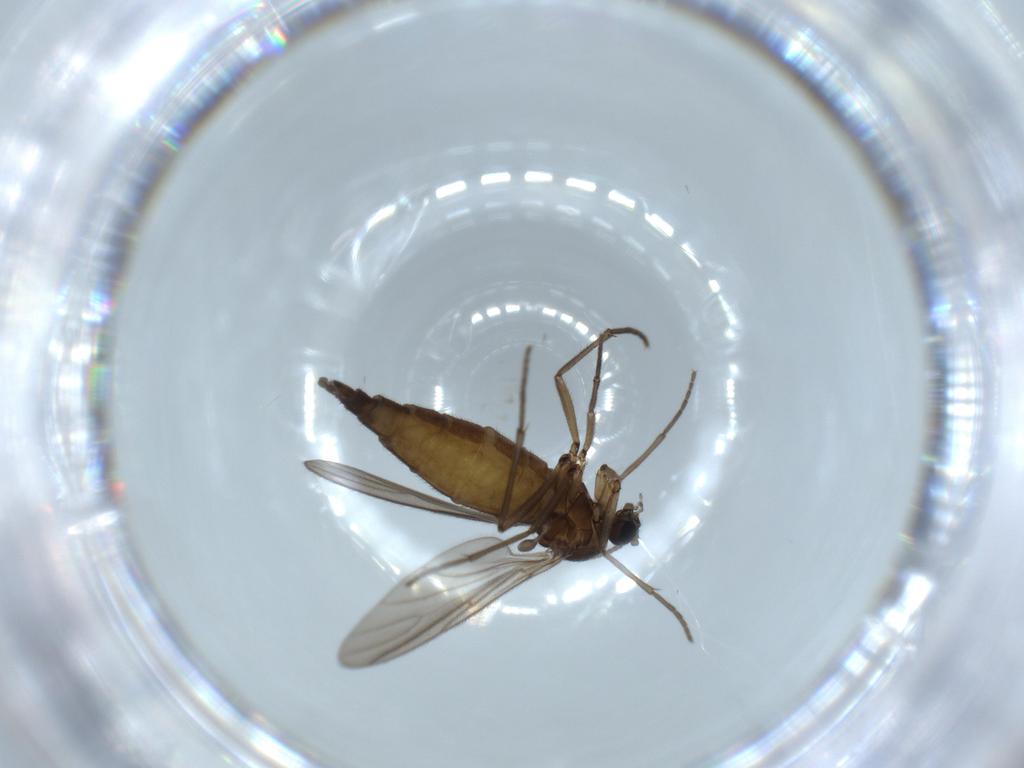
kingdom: Animalia
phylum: Arthropoda
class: Insecta
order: Diptera
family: Sciaridae
